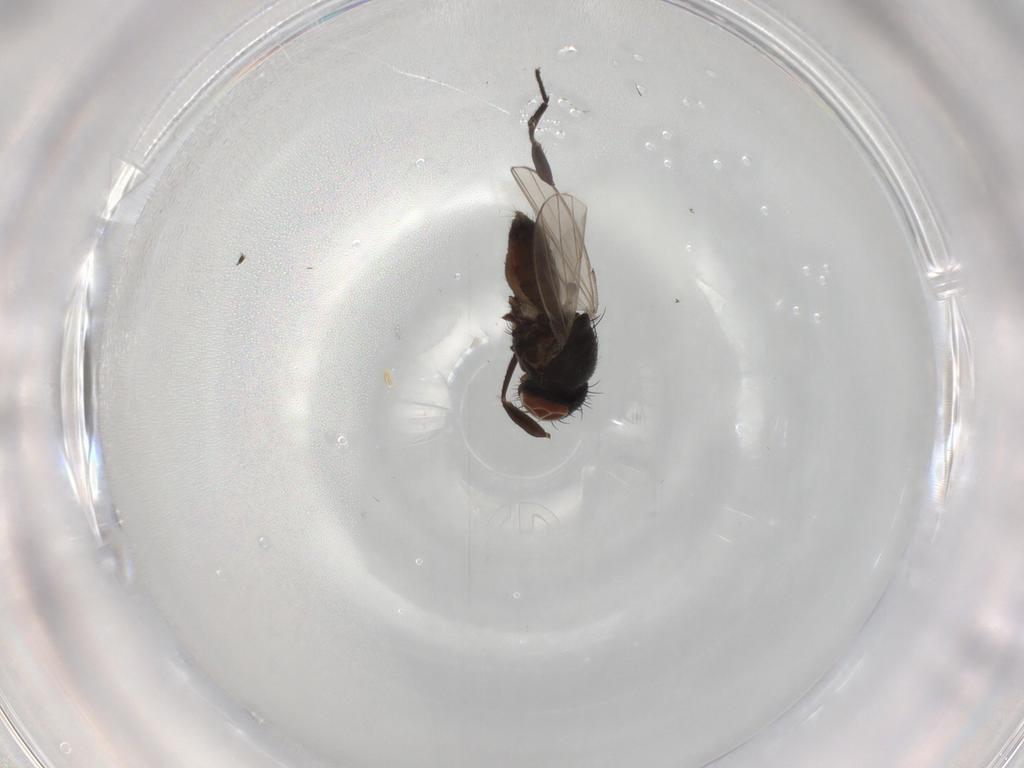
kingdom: Animalia
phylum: Arthropoda
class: Insecta
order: Diptera
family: Milichiidae
